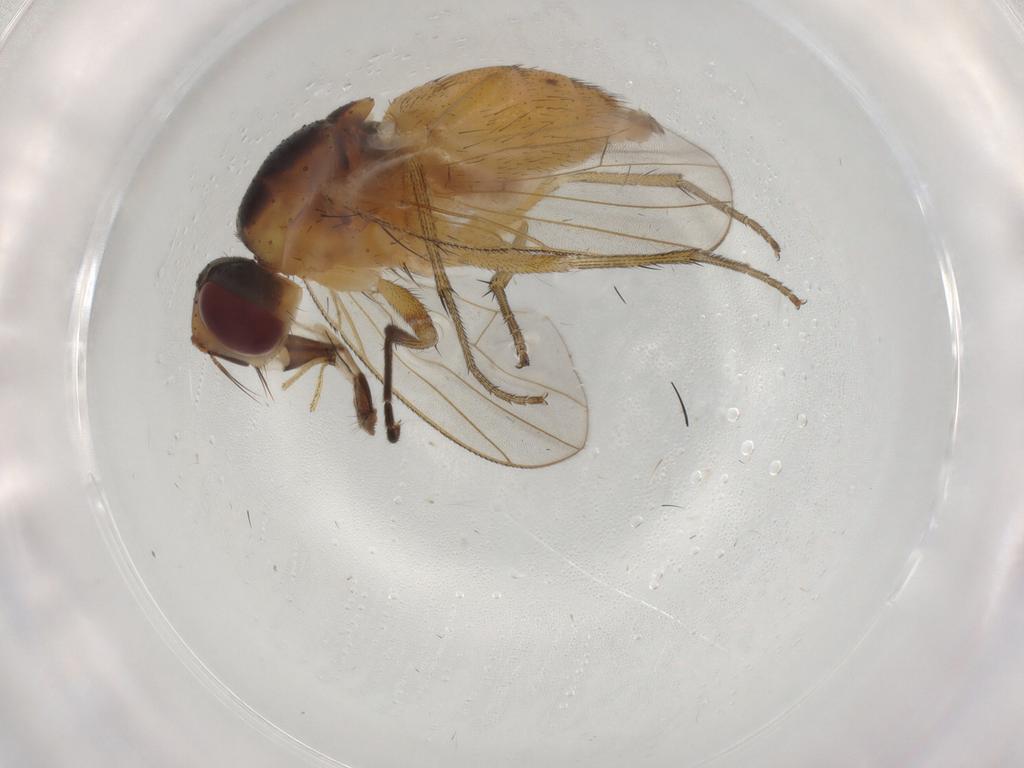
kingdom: Animalia
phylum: Arthropoda
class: Insecta
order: Diptera
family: Muscidae
